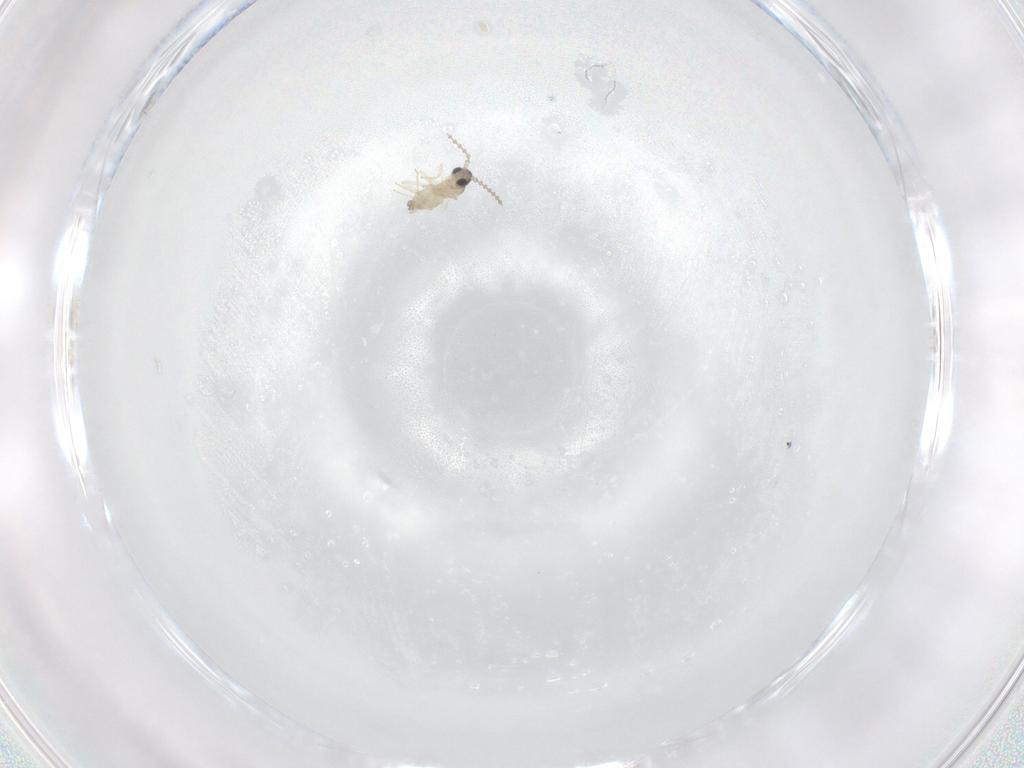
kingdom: Animalia
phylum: Arthropoda
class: Insecta
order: Diptera
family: Cecidomyiidae
